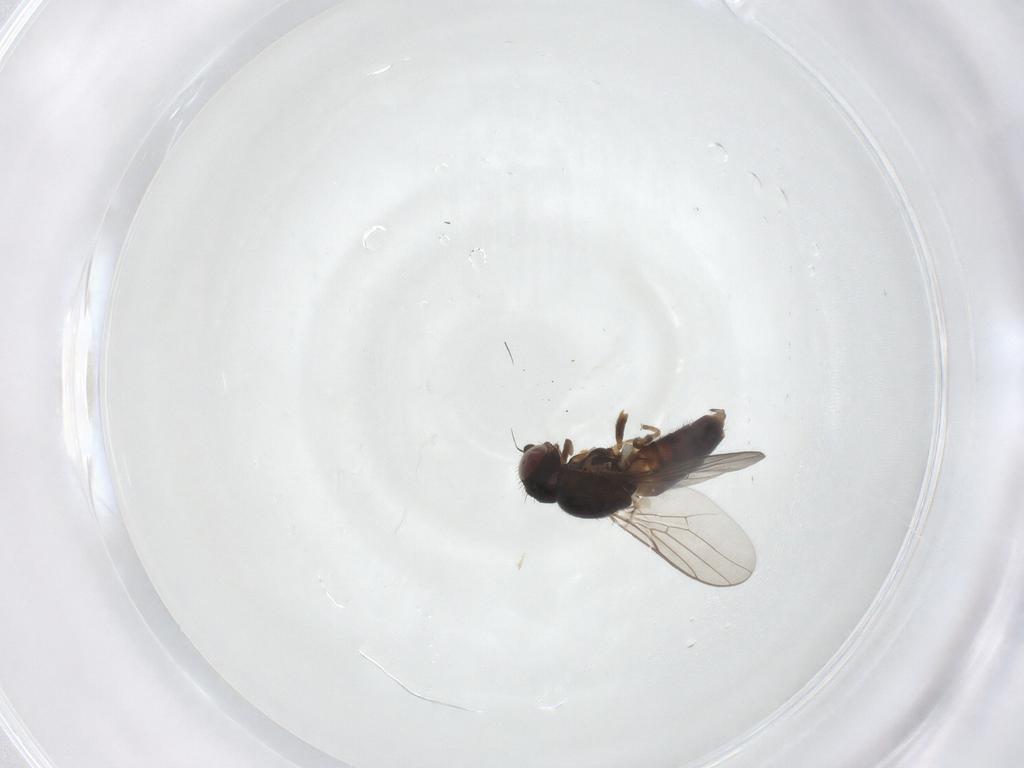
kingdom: Animalia
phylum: Arthropoda
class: Insecta
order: Diptera
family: Chloropidae
